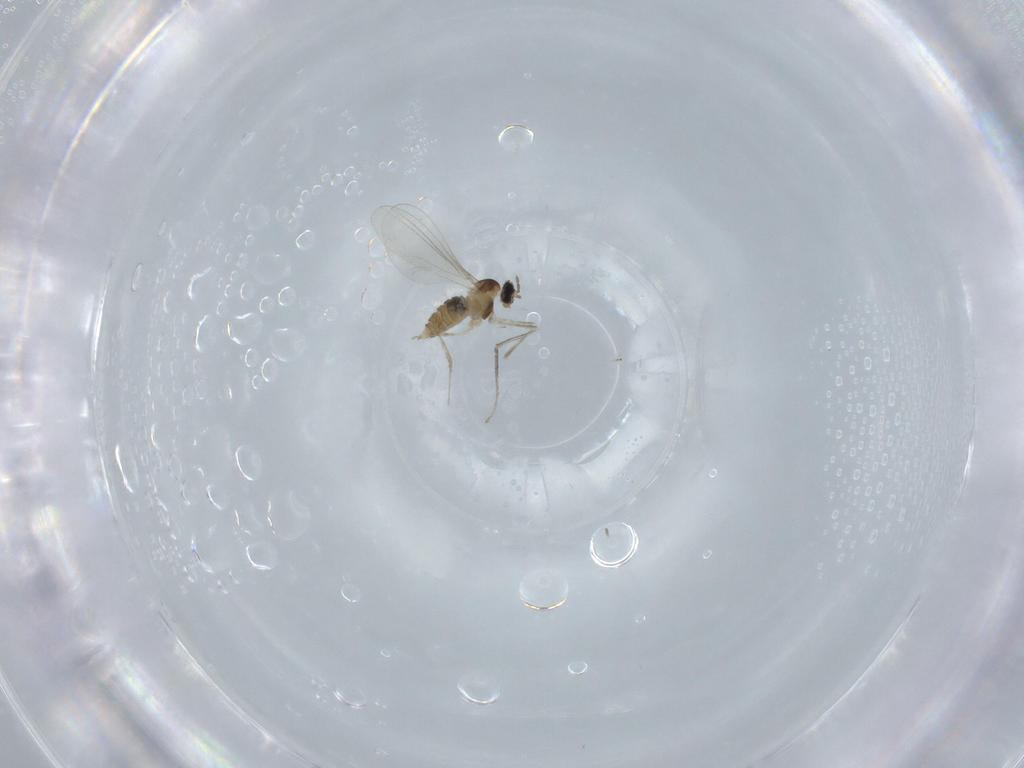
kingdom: Animalia
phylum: Arthropoda
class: Insecta
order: Diptera
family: Cecidomyiidae
